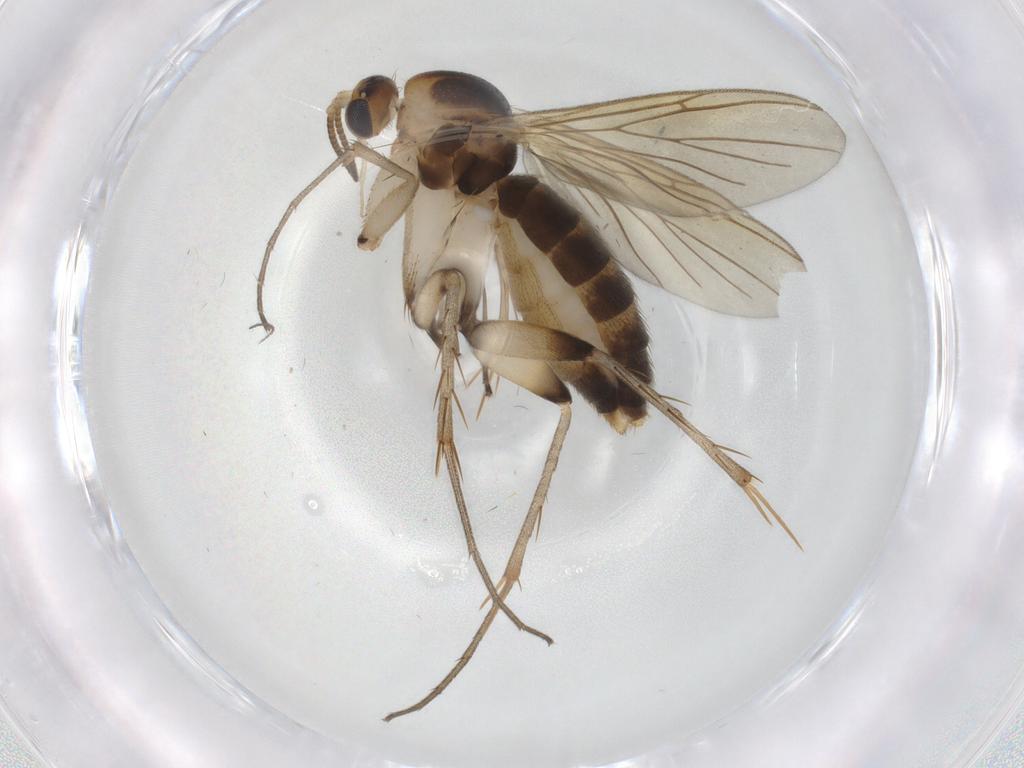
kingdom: Animalia
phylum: Arthropoda
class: Insecta
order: Diptera
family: Mycetophilidae
